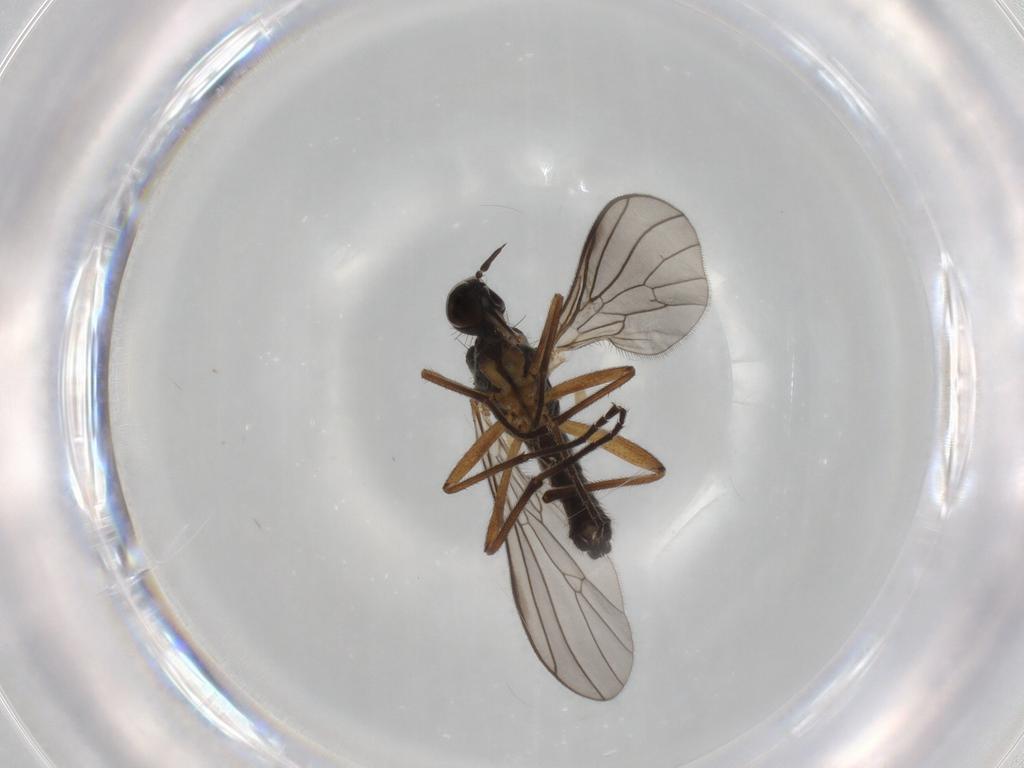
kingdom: Animalia
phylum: Arthropoda
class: Insecta
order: Diptera
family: Empididae
